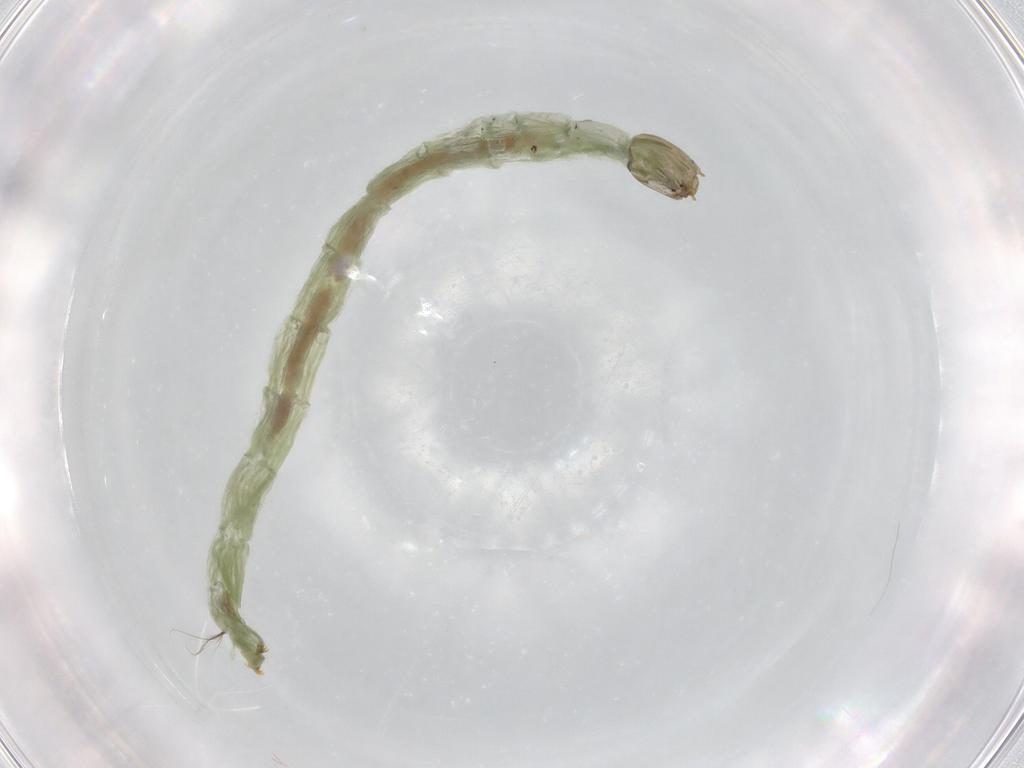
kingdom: Animalia
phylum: Arthropoda
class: Insecta
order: Diptera
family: Chironomidae
